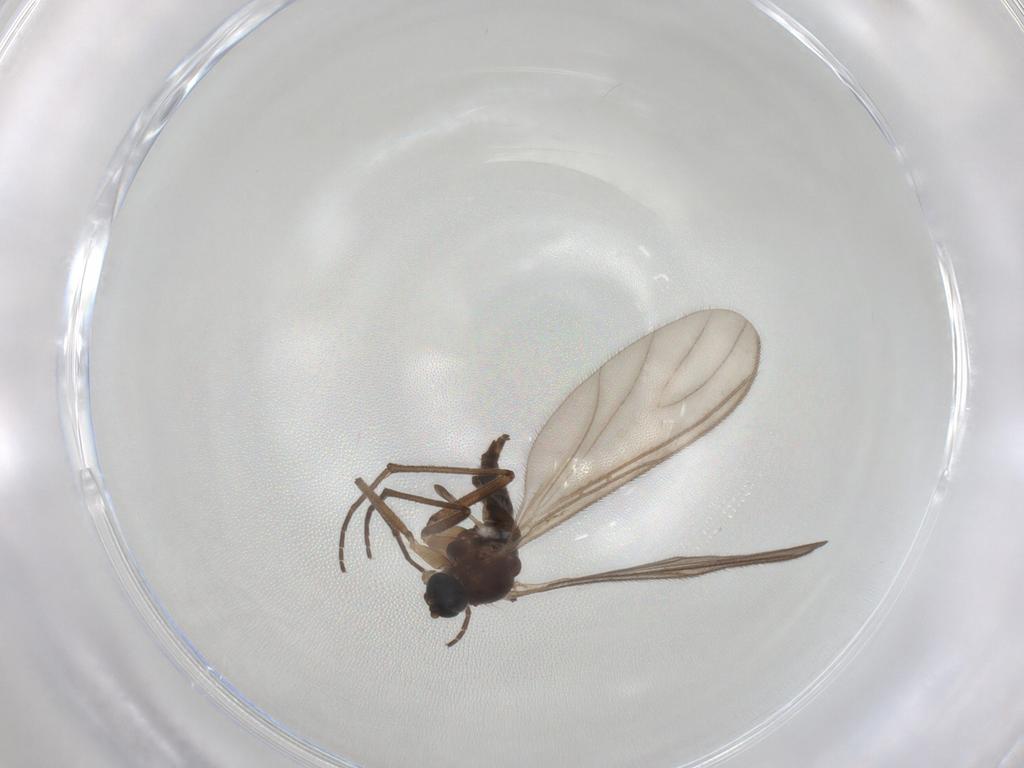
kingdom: Animalia
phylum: Arthropoda
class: Insecta
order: Diptera
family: Sciaridae
